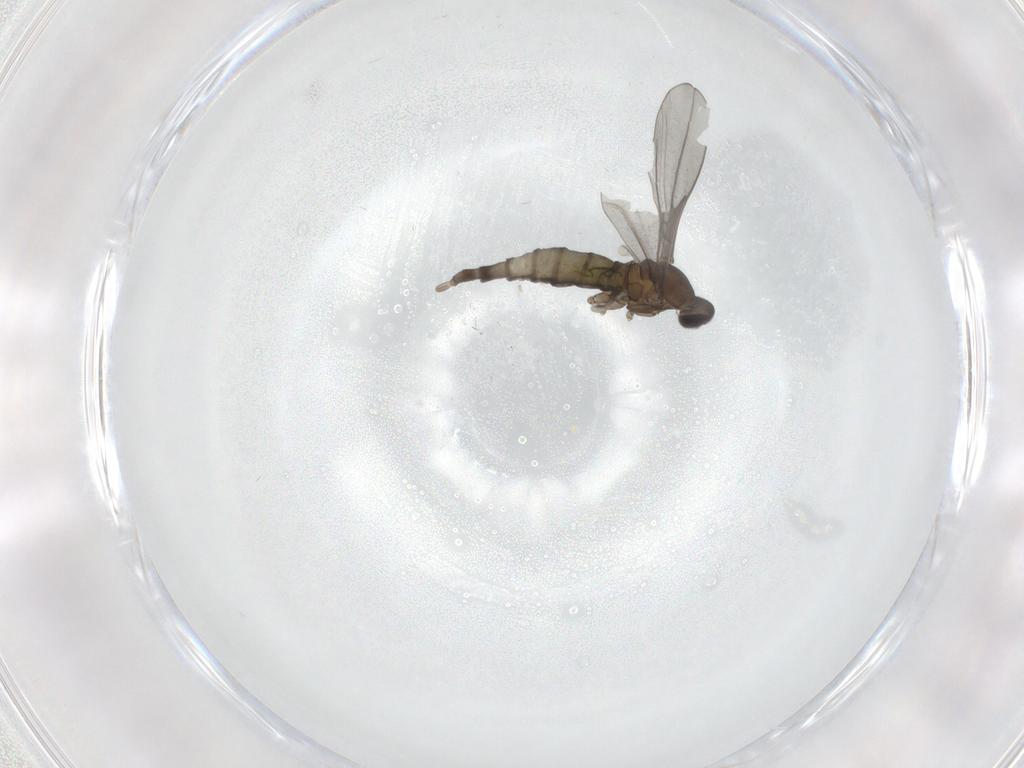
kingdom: Animalia
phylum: Arthropoda
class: Insecta
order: Diptera
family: Cecidomyiidae
